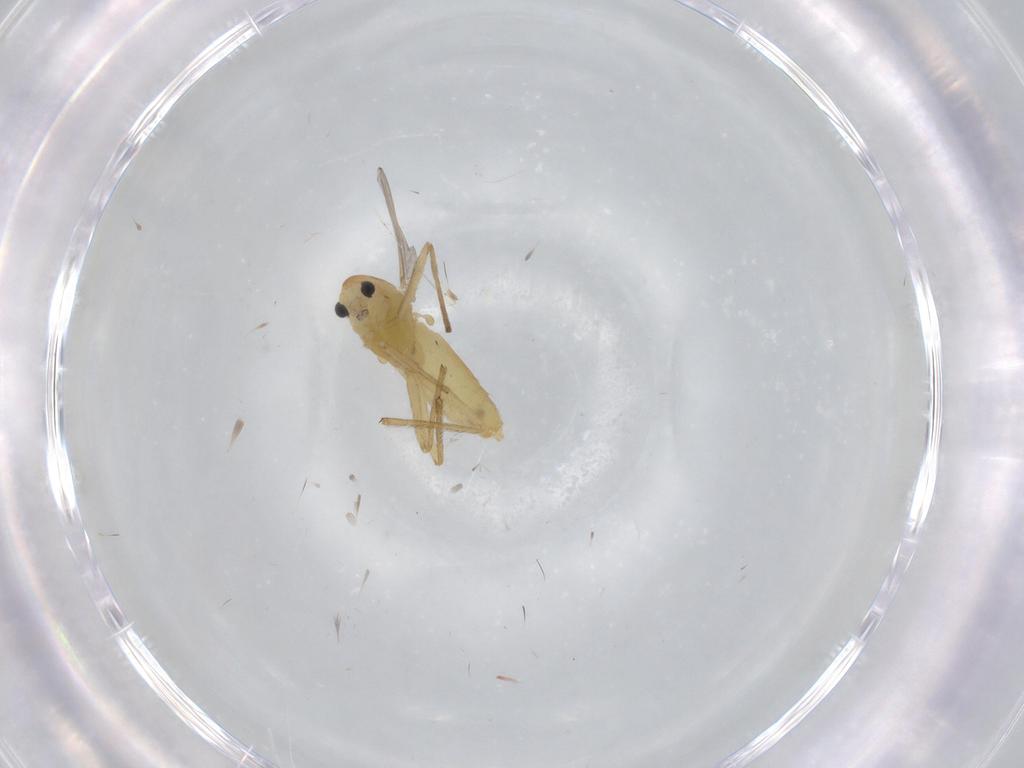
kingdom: Animalia
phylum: Arthropoda
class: Insecta
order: Diptera
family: Chironomidae
